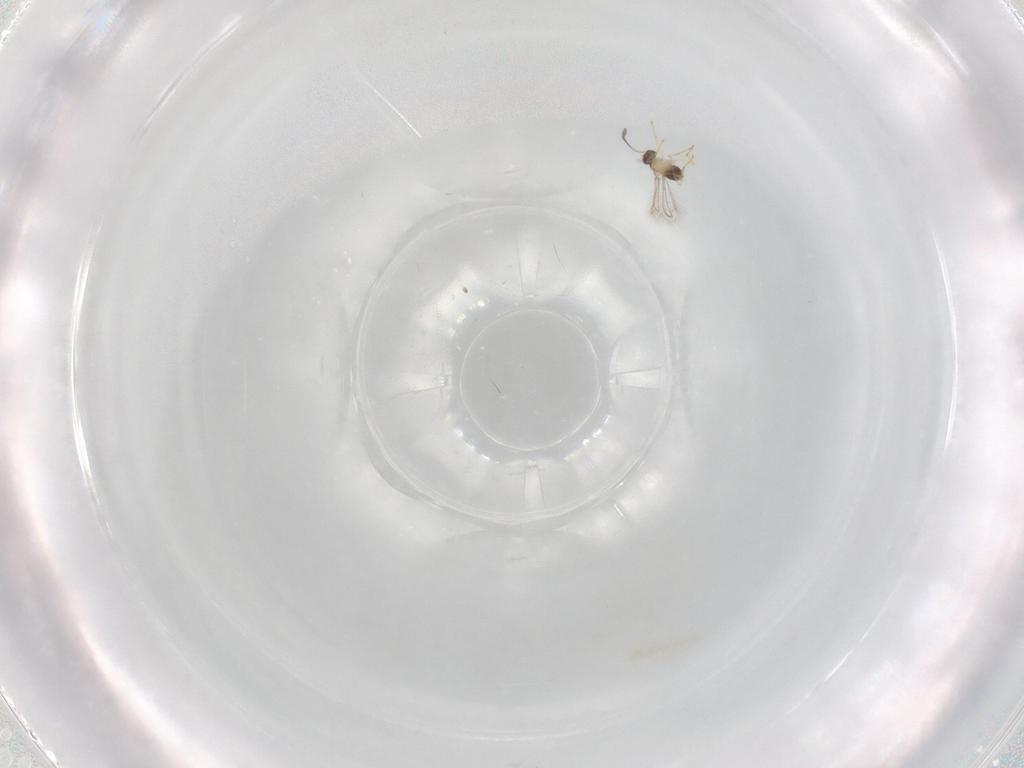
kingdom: Animalia
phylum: Arthropoda
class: Insecta
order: Hymenoptera
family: Mymaridae
